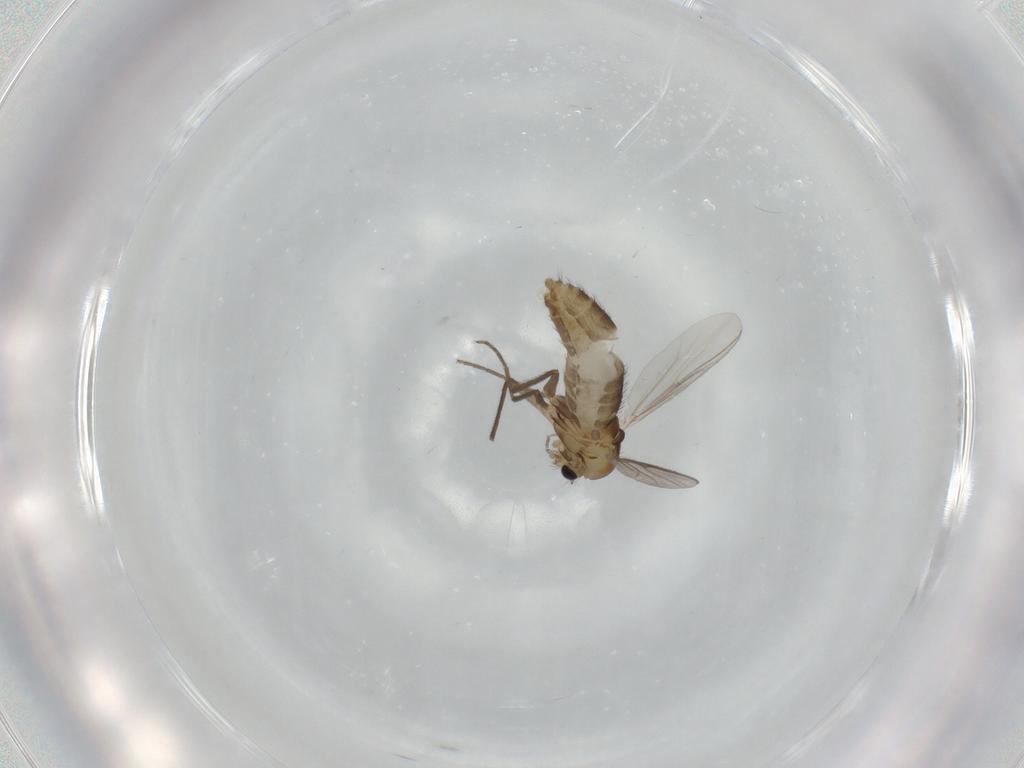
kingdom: Animalia
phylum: Arthropoda
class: Insecta
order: Diptera
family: Chironomidae
